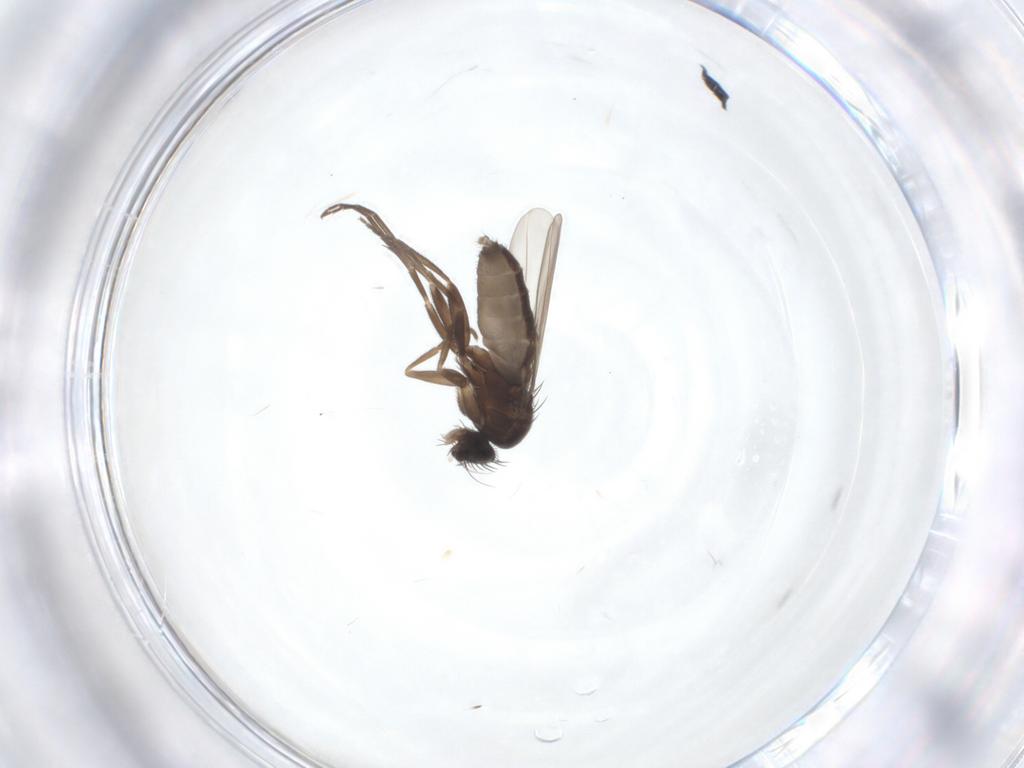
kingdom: Animalia
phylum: Arthropoda
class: Insecta
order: Diptera
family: Phoridae
